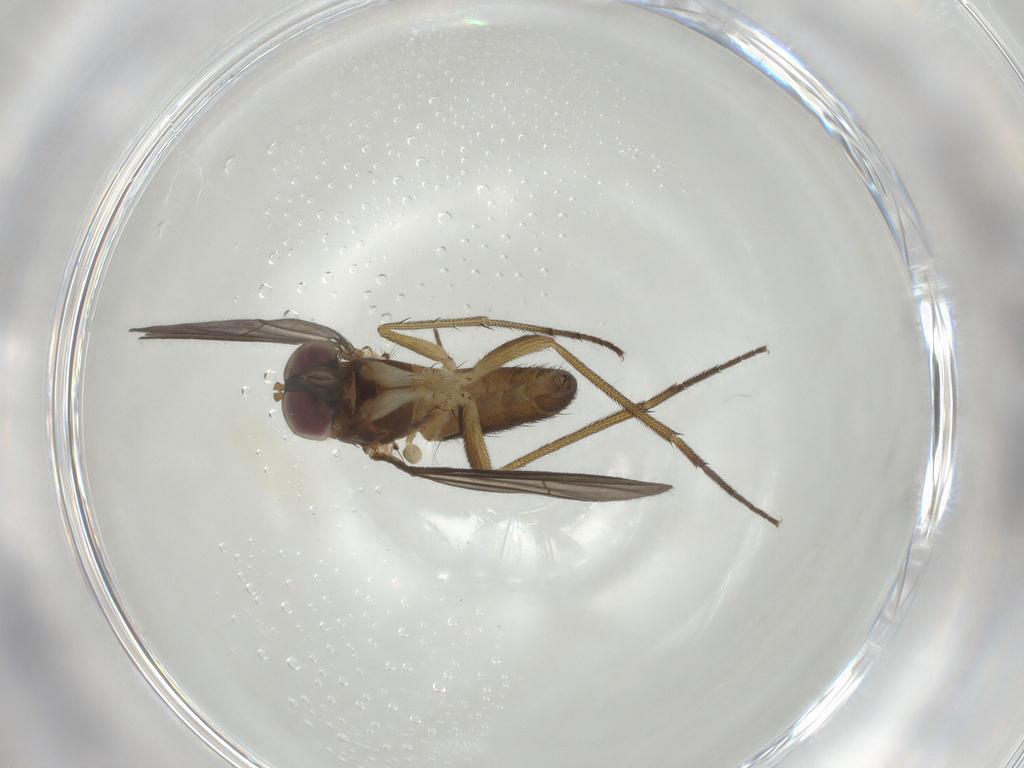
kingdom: Animalia
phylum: Arthropoda
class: Insecta
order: Diptera
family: Dolichopodidae
